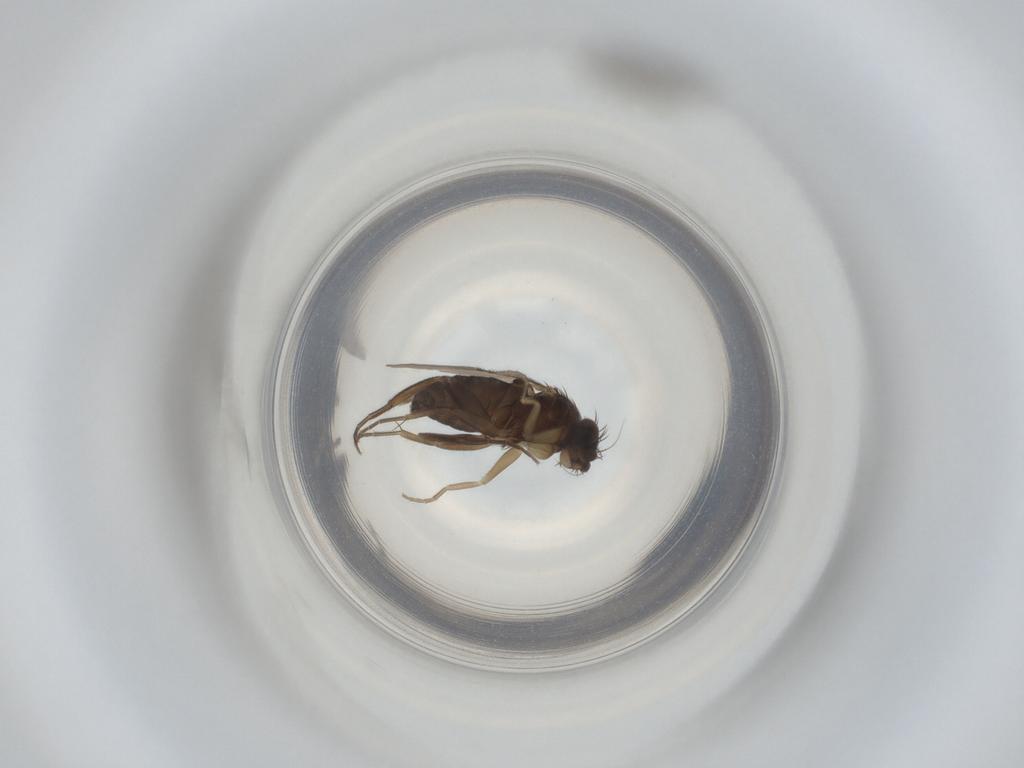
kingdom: Animalia
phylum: Arthropoda
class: Insecta
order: Diptera
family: Phoridae
